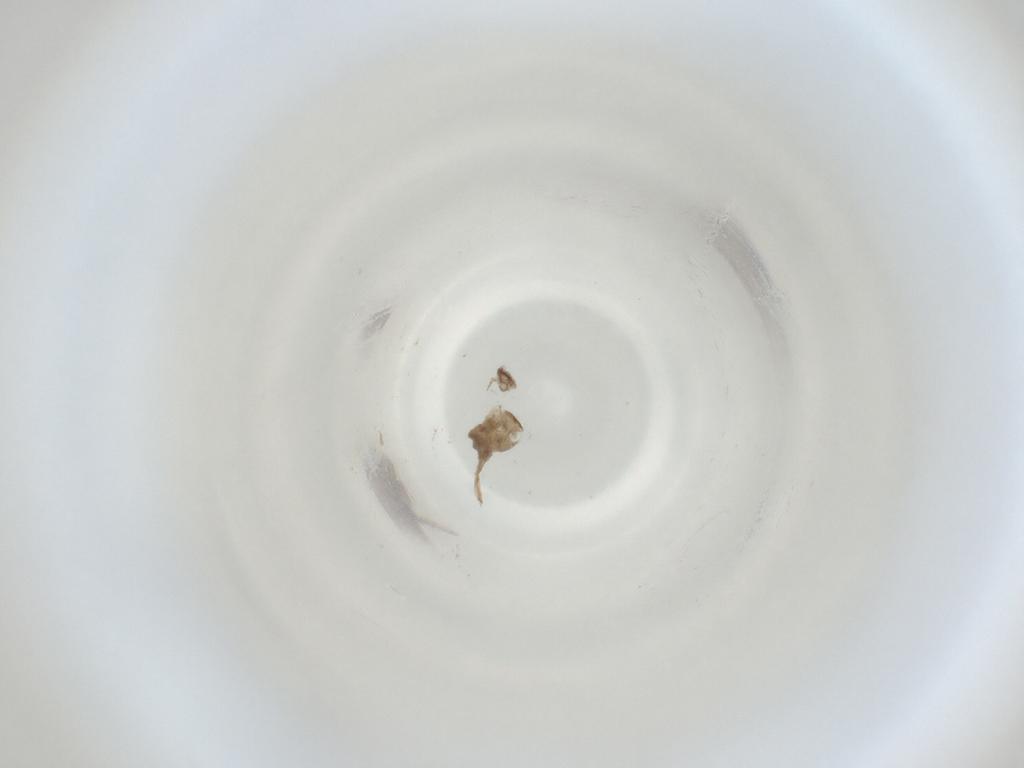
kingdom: Animalia
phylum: Arthropoda
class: Insecta
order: Diptera
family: Cecidomyiidae
